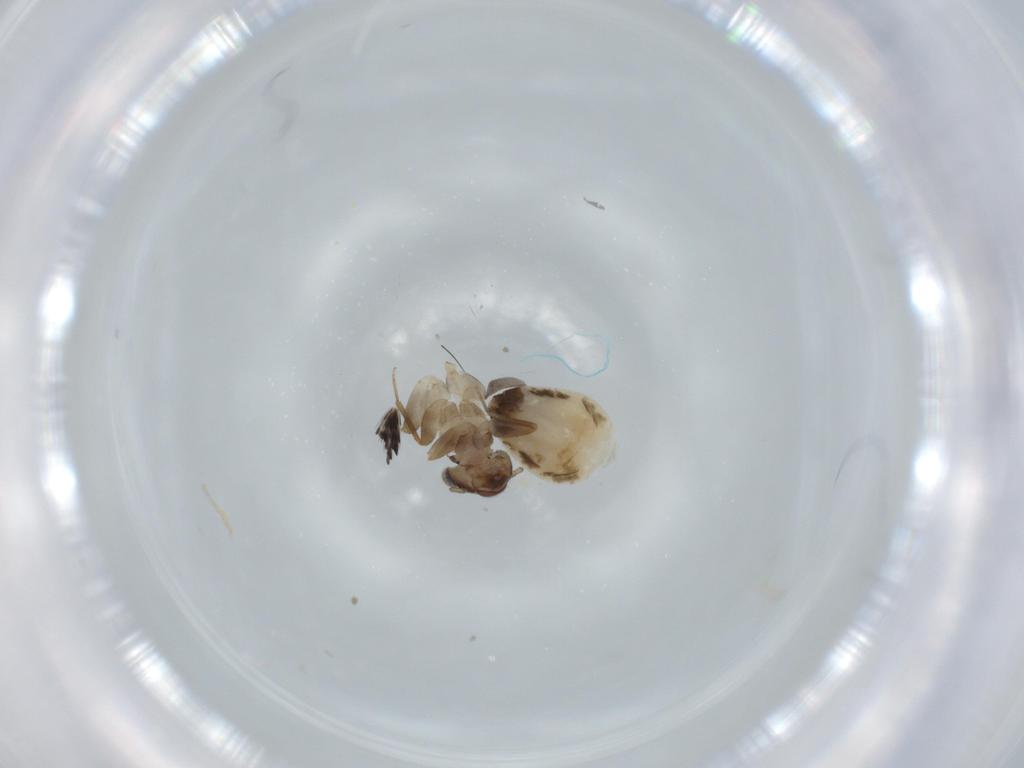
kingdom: Animalia
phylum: Arthropoda
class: Insecta
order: Psocodea
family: Lepidopsocidae
